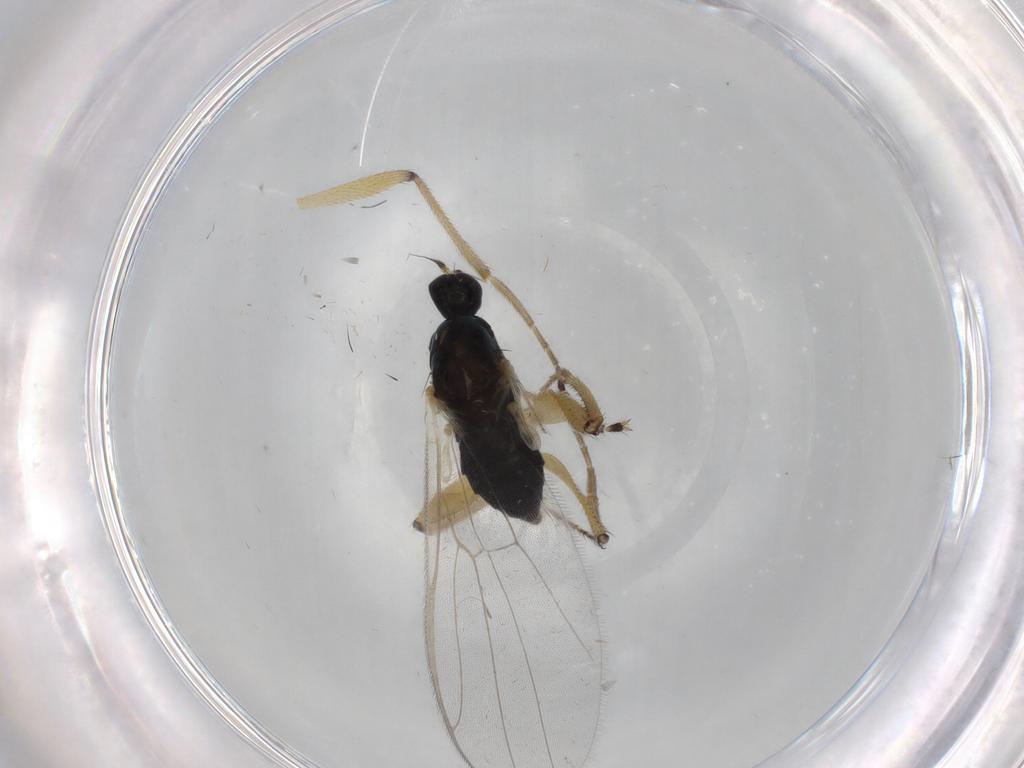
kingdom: Animalia
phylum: Arthropoda
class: Insecta
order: Diptera
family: Hybotidae
